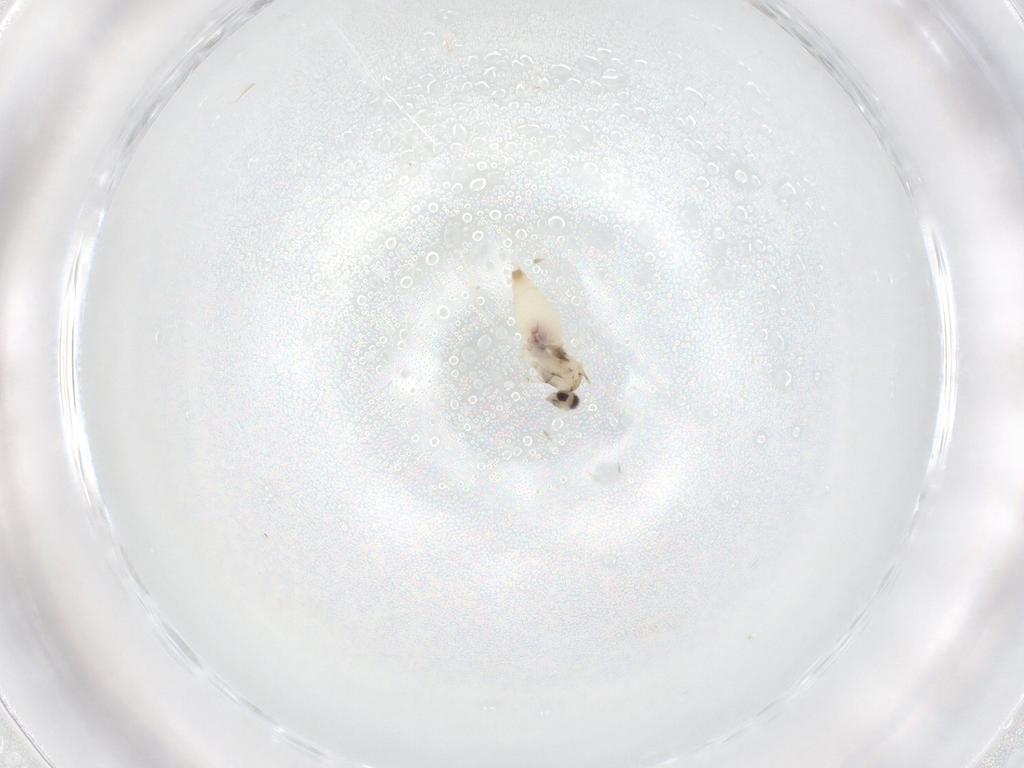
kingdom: Animalia
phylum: Arthropoda
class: Insecta
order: Diptera
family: Cecidomyiidae
